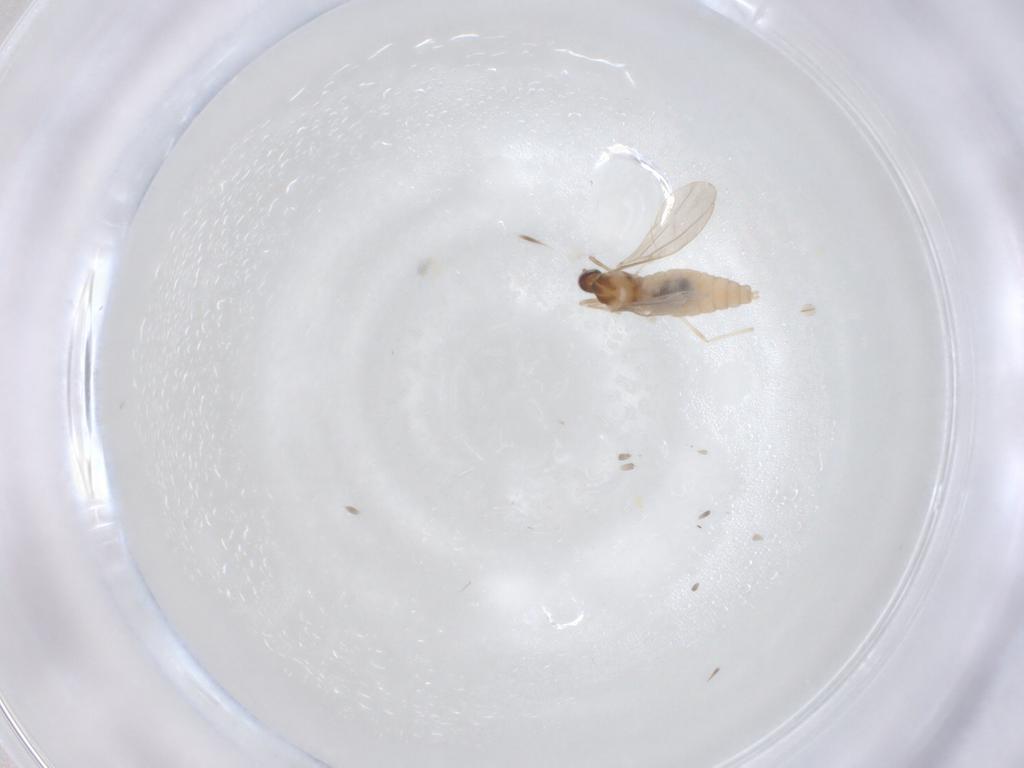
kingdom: Animalia
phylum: Arthropoda
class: Insecta
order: Diptera
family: Cecidomyiidae
